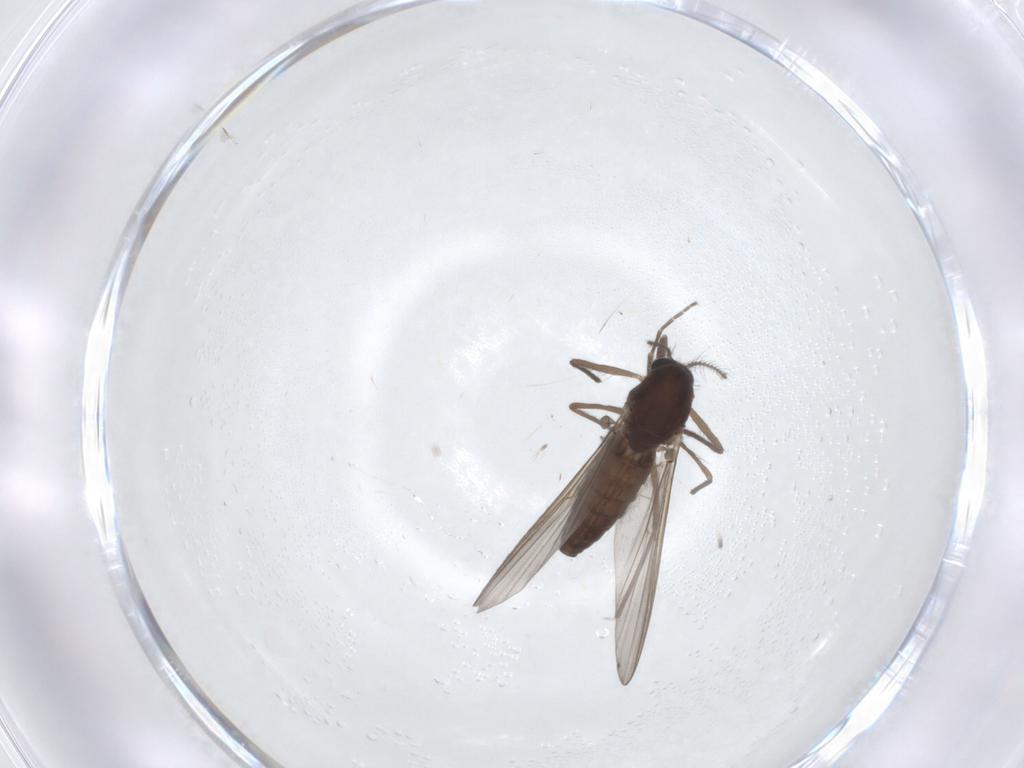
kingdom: Animalia
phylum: Arthropoda
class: Insecta
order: Diptera
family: Chironomidae
